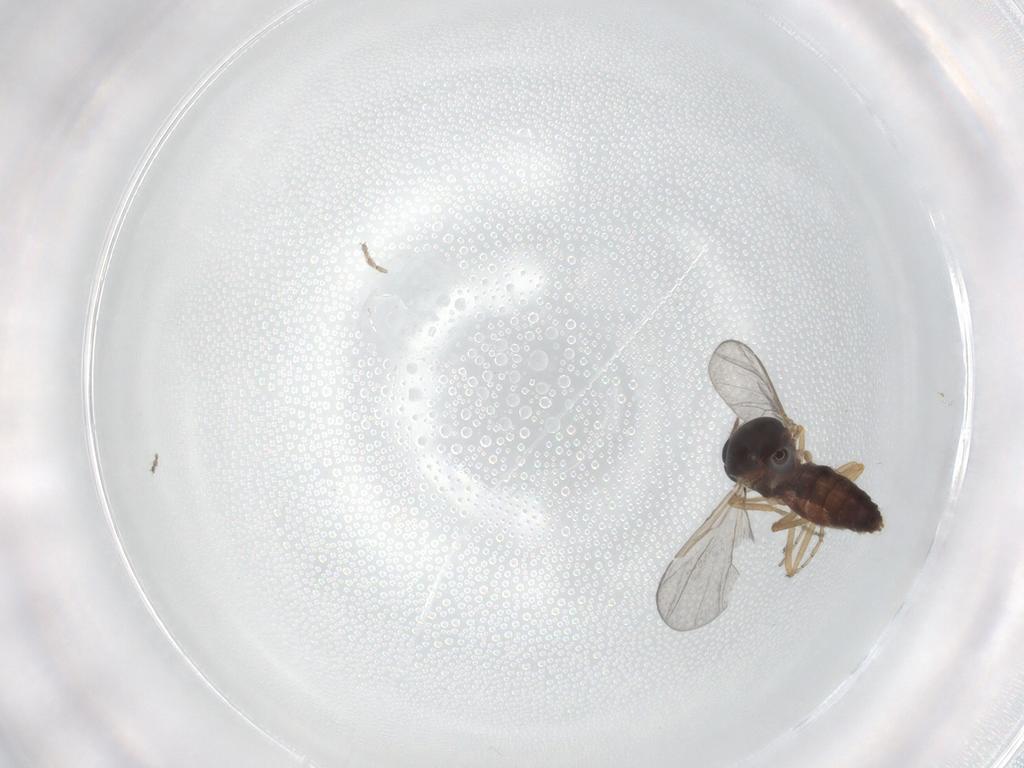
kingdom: Animalia
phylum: Arthropoda
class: Insecta
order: Diptera
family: Ceratopogonidae
